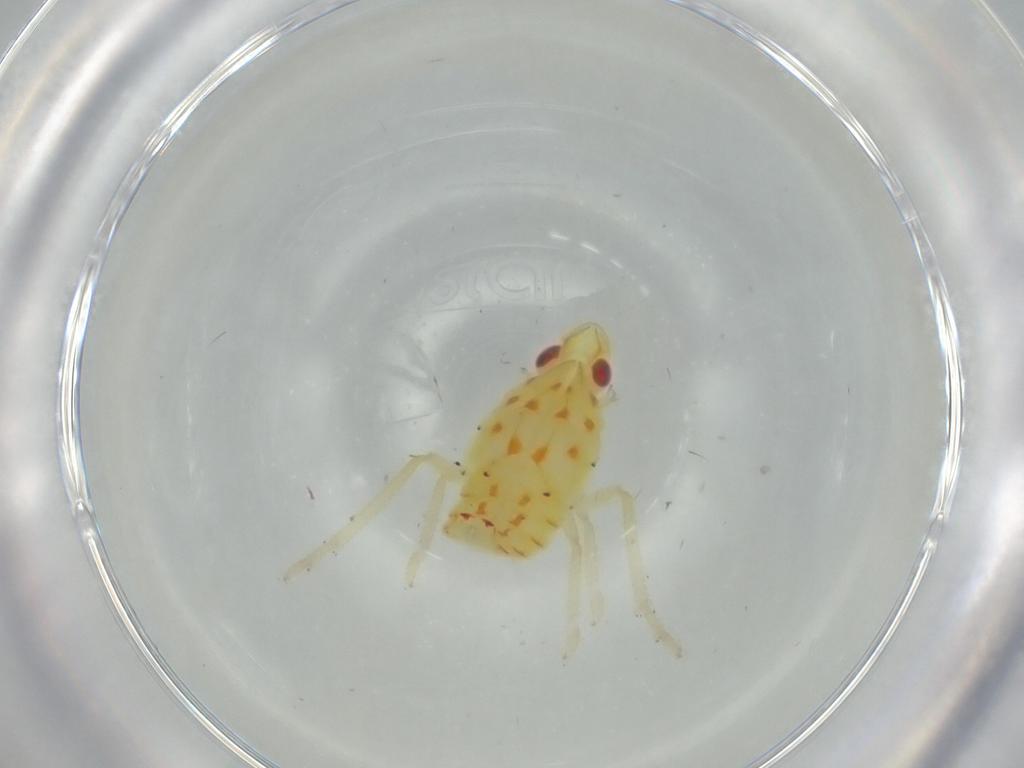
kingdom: Animalia
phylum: Arthropoda
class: Insecta
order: Hemiptera
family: Tropiduchidae
